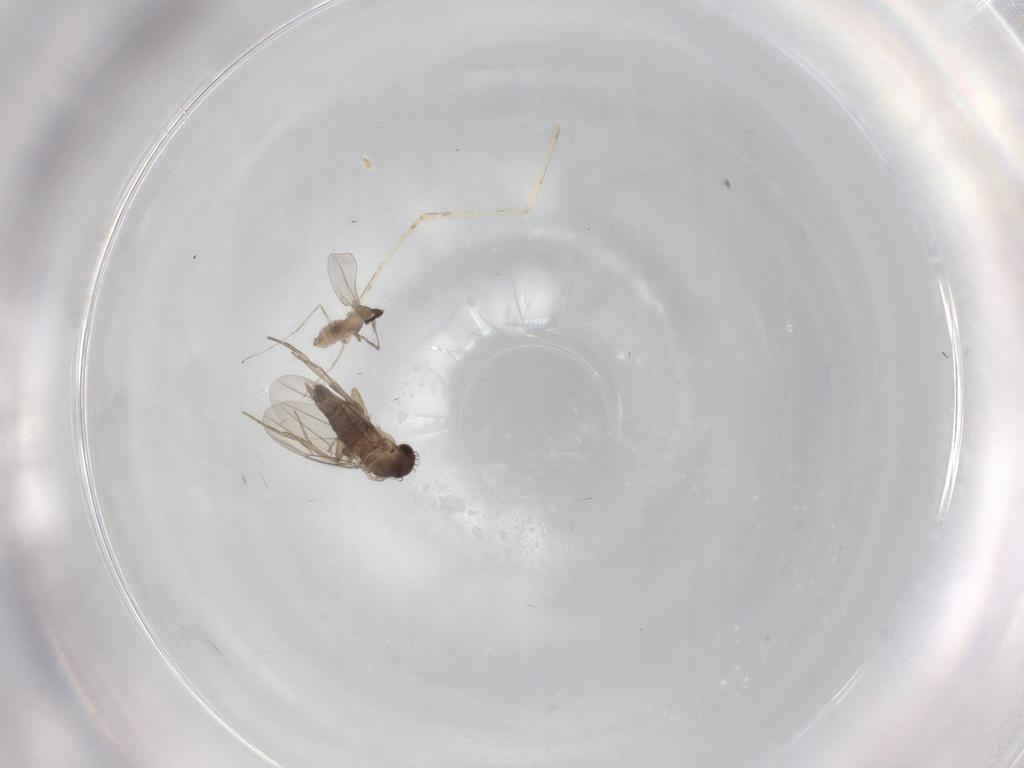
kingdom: Animalia
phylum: Arthropoda
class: Insecta
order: Diptera
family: Phoridae
